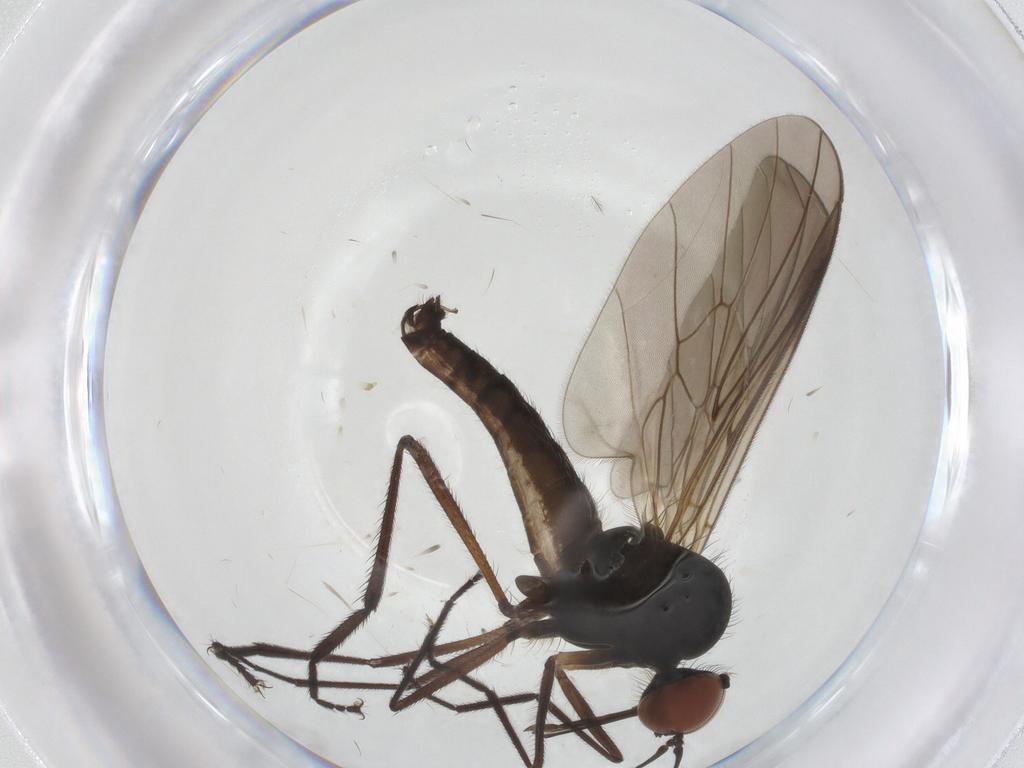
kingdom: Animalia
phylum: Arthropoda
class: Insecta
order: Diptera
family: Empididae
